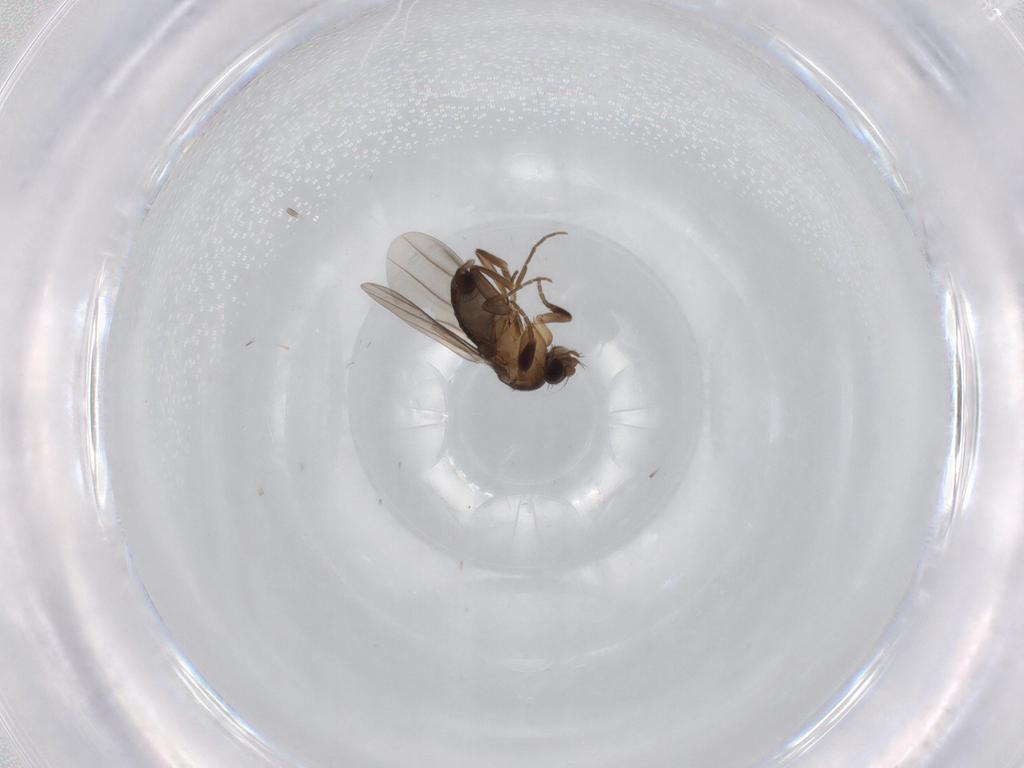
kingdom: Animalia
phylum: Arthropoda
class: Insecta
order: Diptera
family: Phoridae
